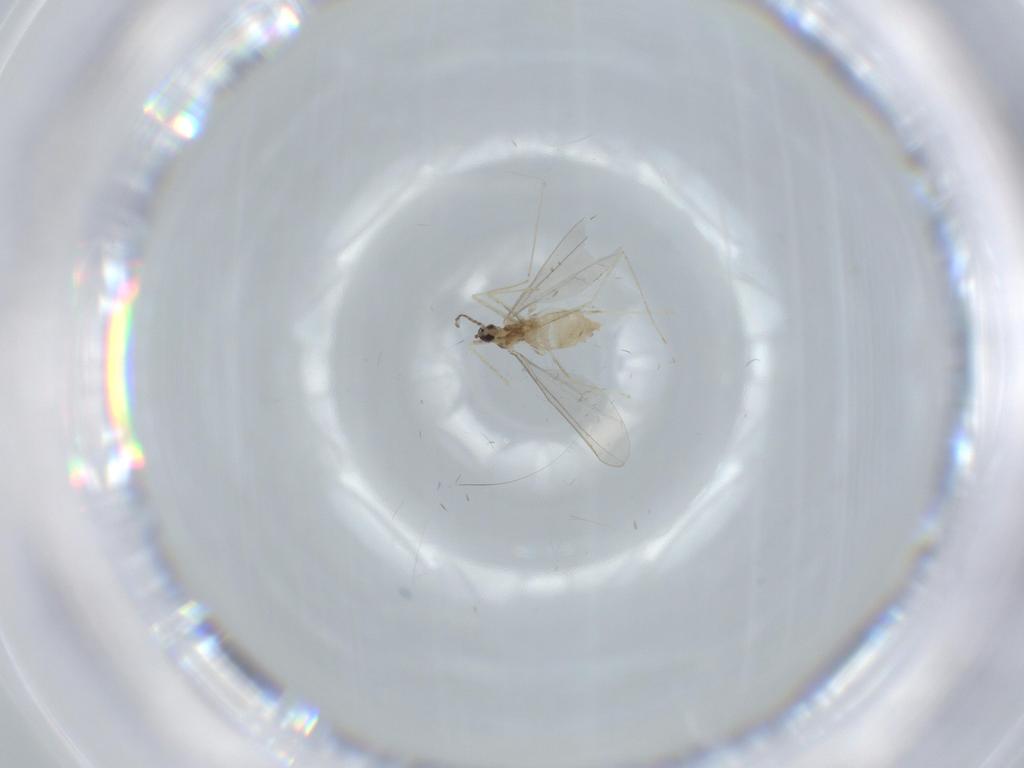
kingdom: Animalia
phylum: Arthropoda
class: Insecta
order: Diptera
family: Cecidomyiidae
